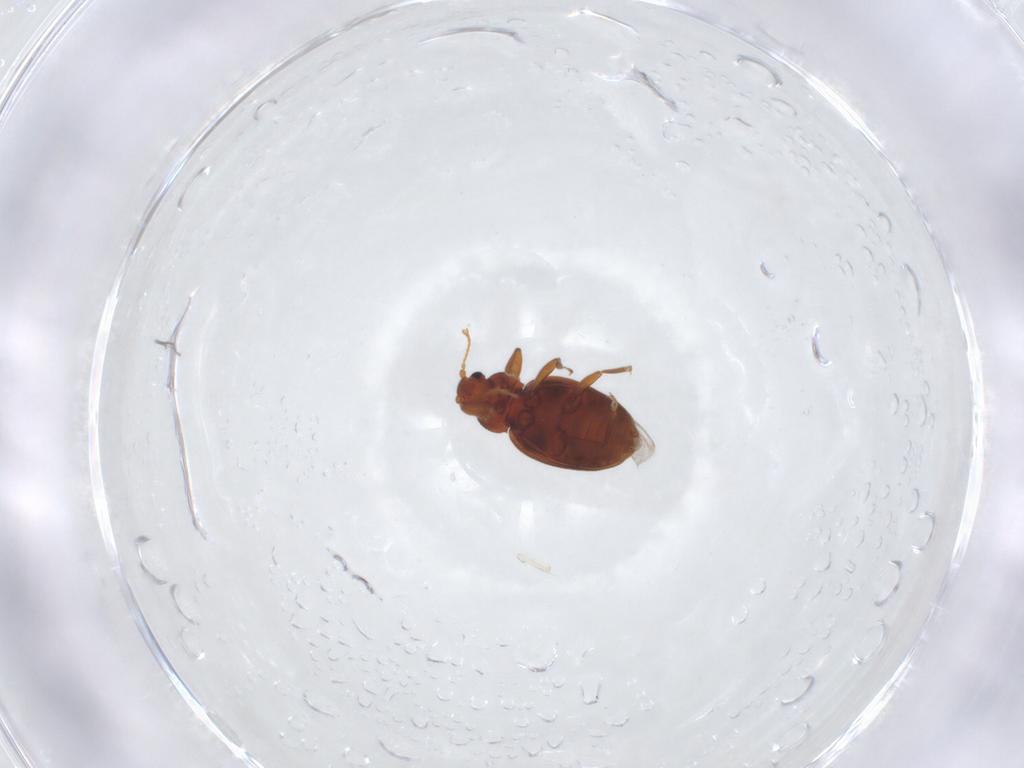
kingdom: Animalia
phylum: Arthropoda
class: Insecta
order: Coleoptera
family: Latridiidae
